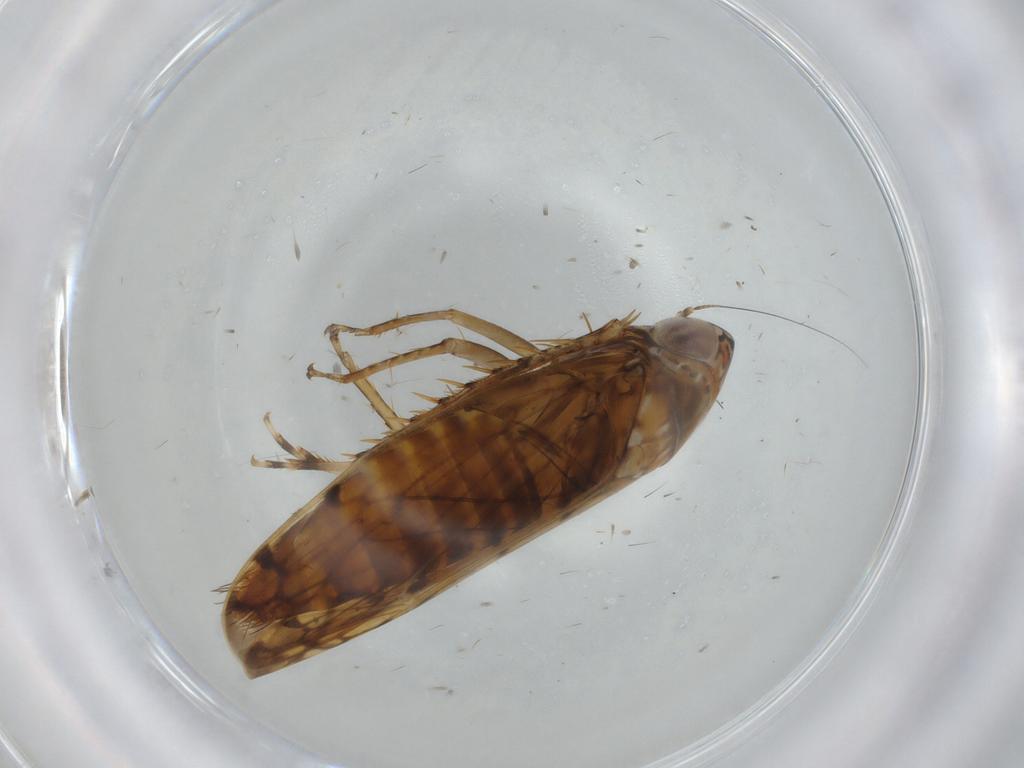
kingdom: Animalia
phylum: Arthropoda
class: Insecta
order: Hemiptera
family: Cicadellidae
